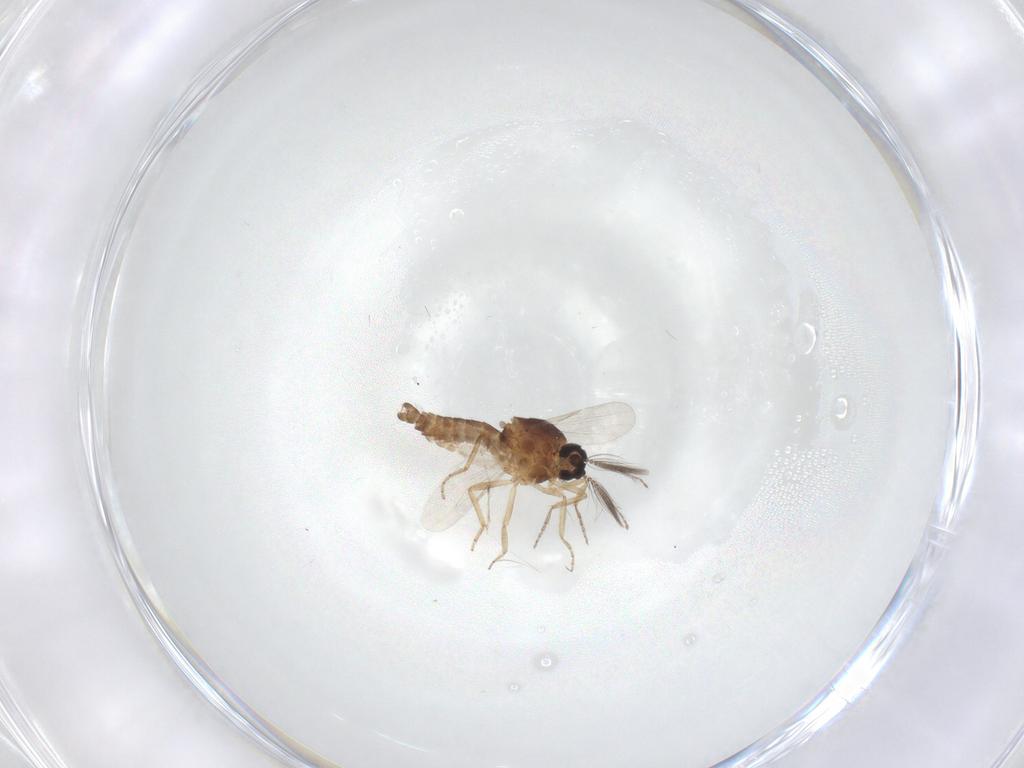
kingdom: Animalia
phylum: Arthropoda
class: Insecta
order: Diptera
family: Ceratopogonidae
